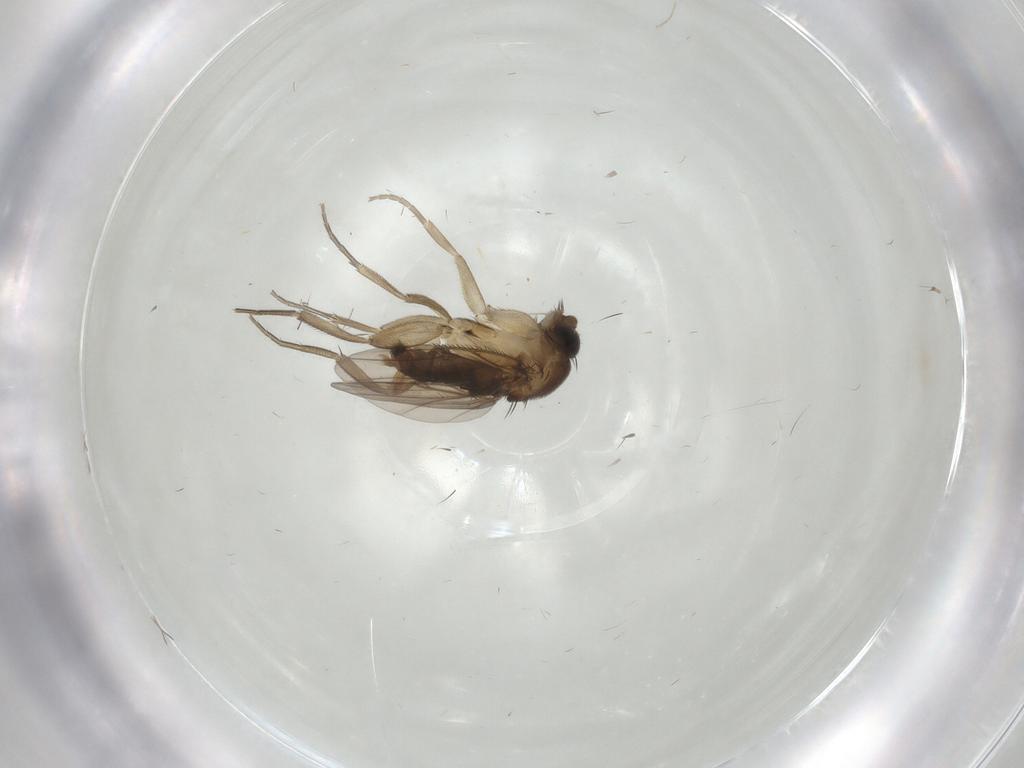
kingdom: Animalia
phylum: Arthropoda
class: Insecta
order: Diptera
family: Phoridae
